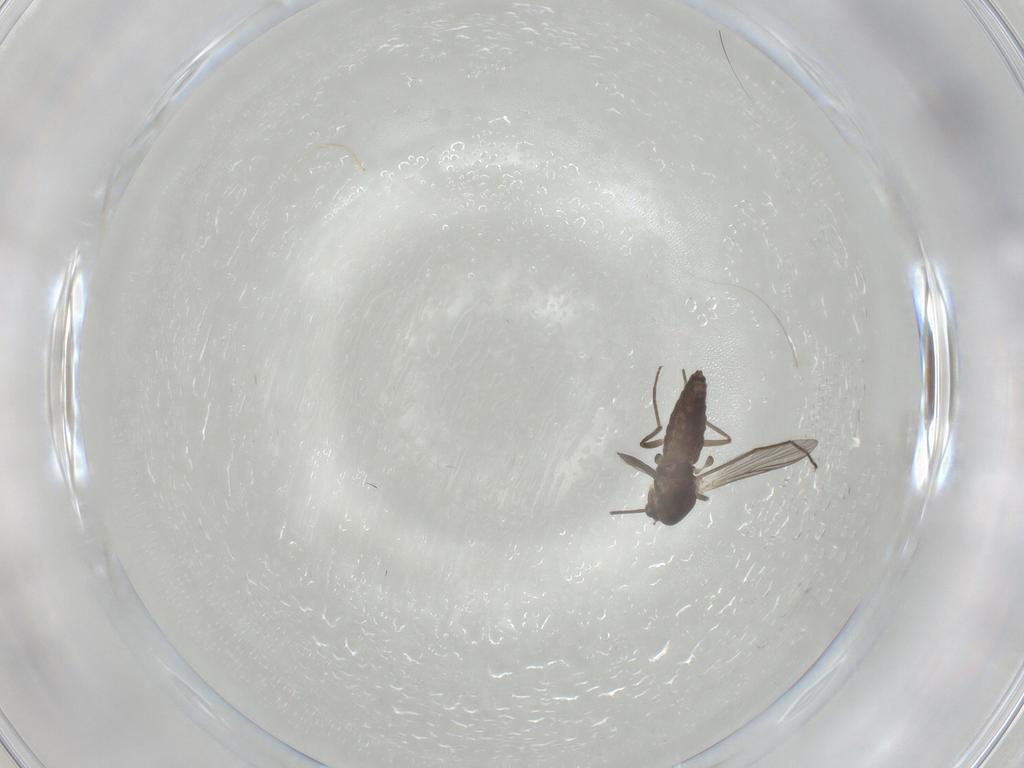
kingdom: Animalia
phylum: Arthropoda
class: Insecta
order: Diptera
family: Chironomidae
